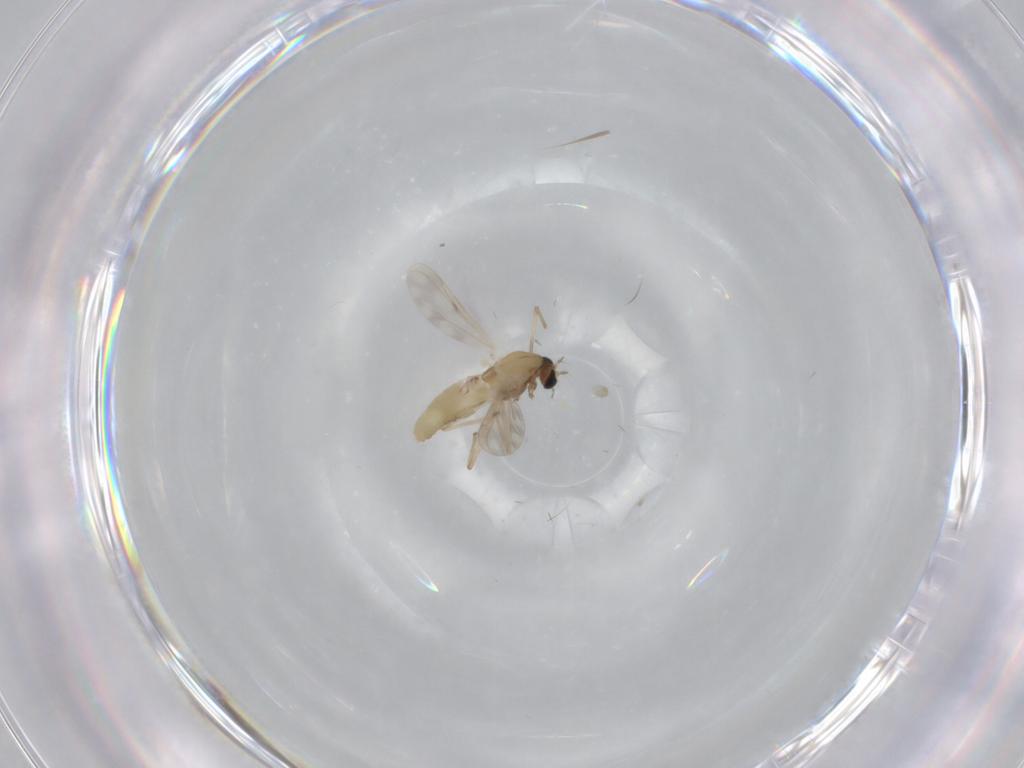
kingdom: Animalia
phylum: Arthropoda
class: Insecta
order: Diptera
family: Chironomidae
